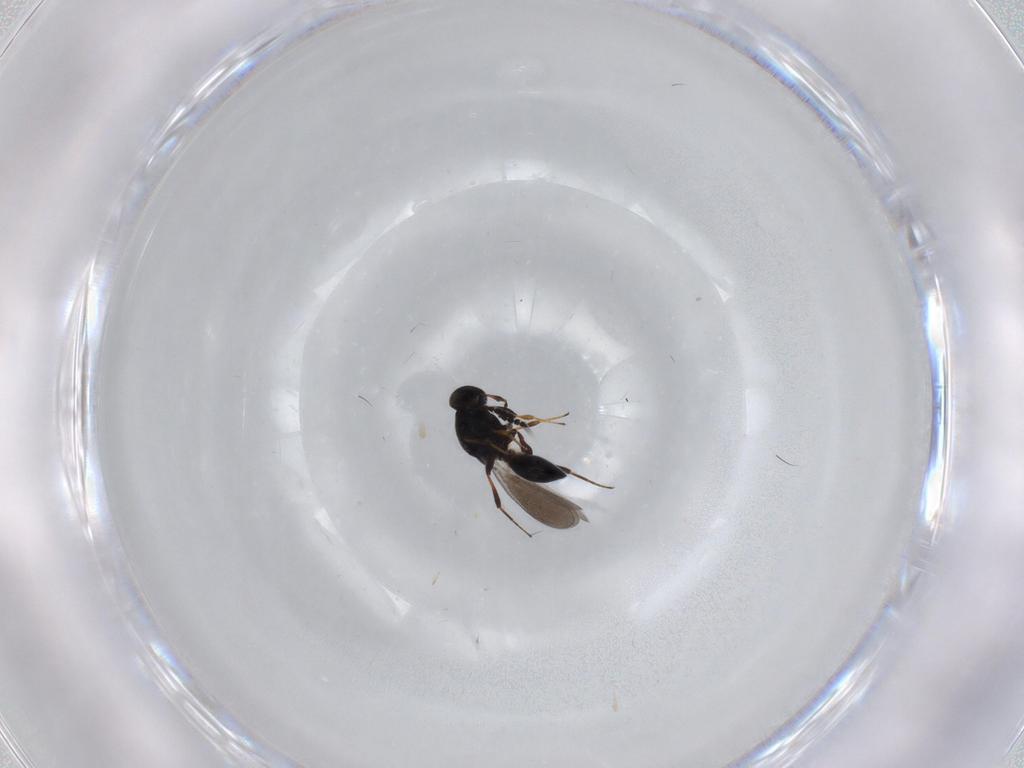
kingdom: Animalia
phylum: Arthropoda
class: Insecta
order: Hymenoptera
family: Platygastridae
